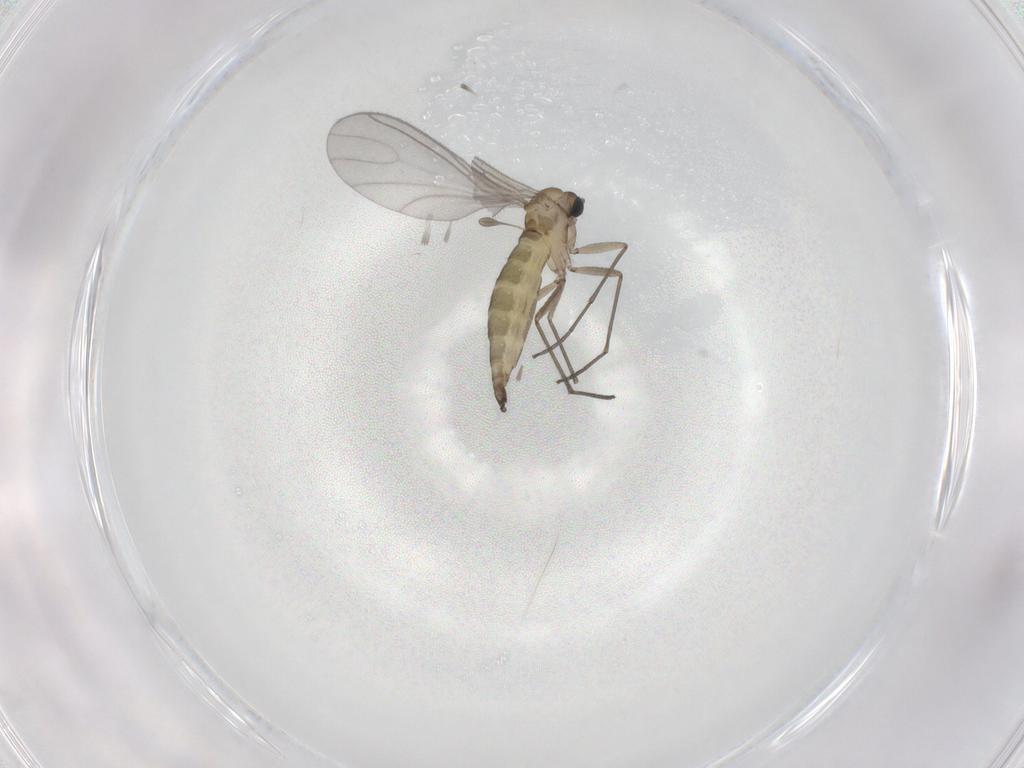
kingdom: Animalia
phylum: Arthropoda
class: Insecta
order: Diptera
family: Sciaridae
